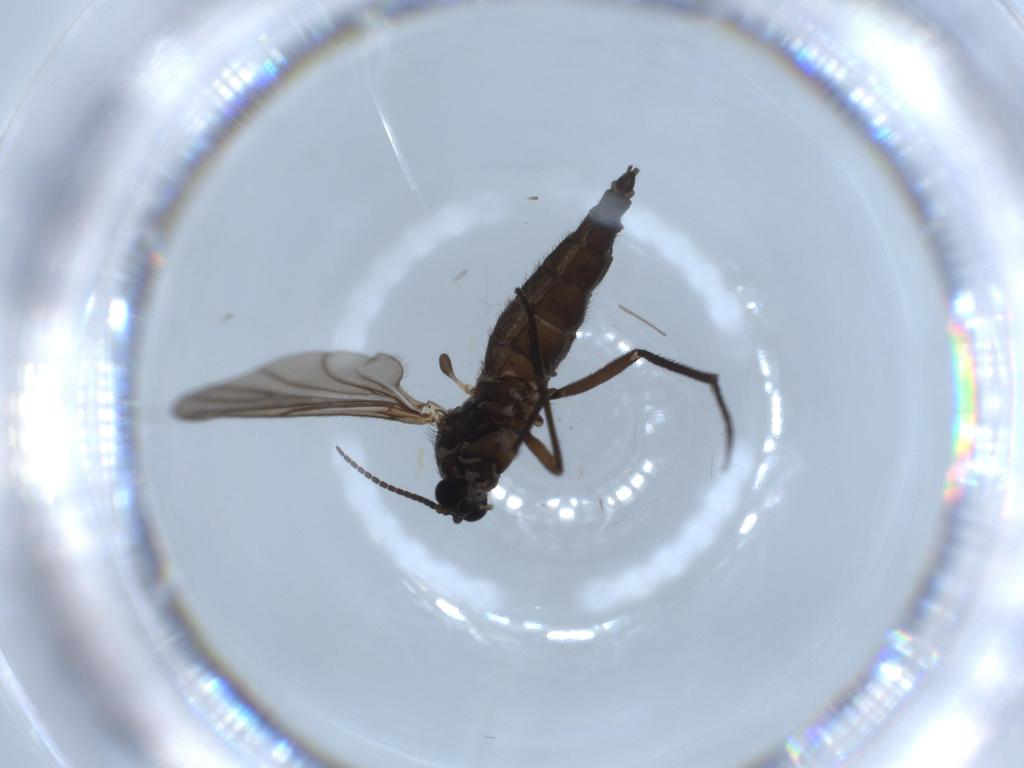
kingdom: Animalia
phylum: Arthropoda
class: Insecta
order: Diptera
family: Sciaridae
